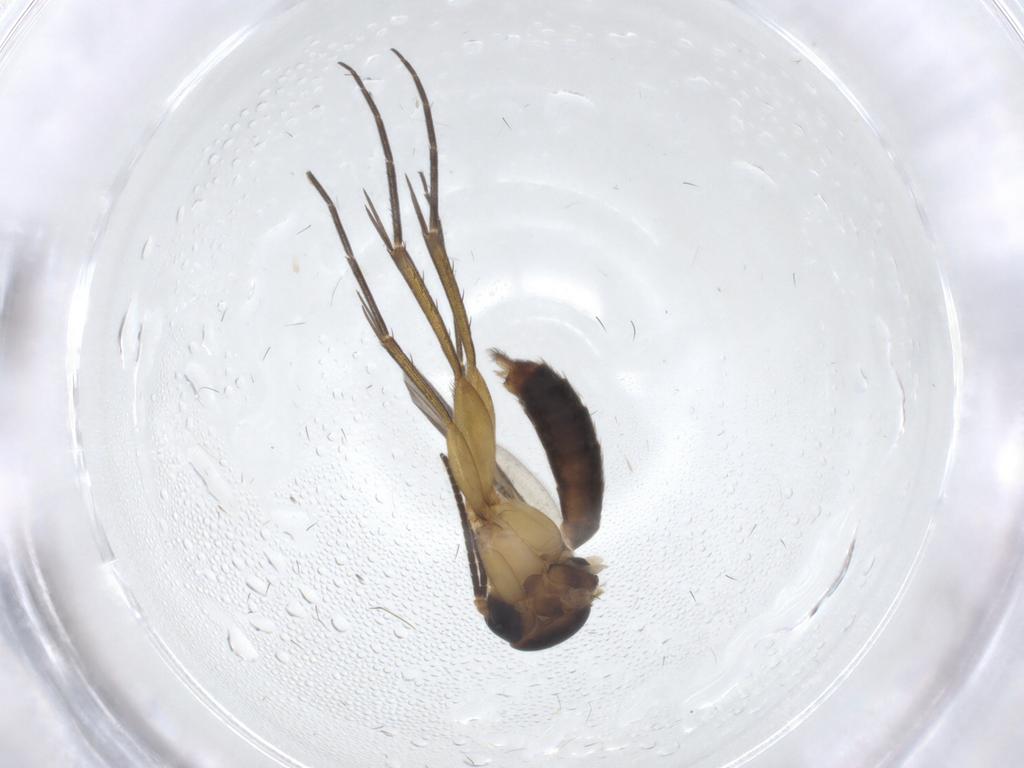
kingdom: Animalia
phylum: Arthropoda
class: Insecta
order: Diptera
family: Mycetophilidae
